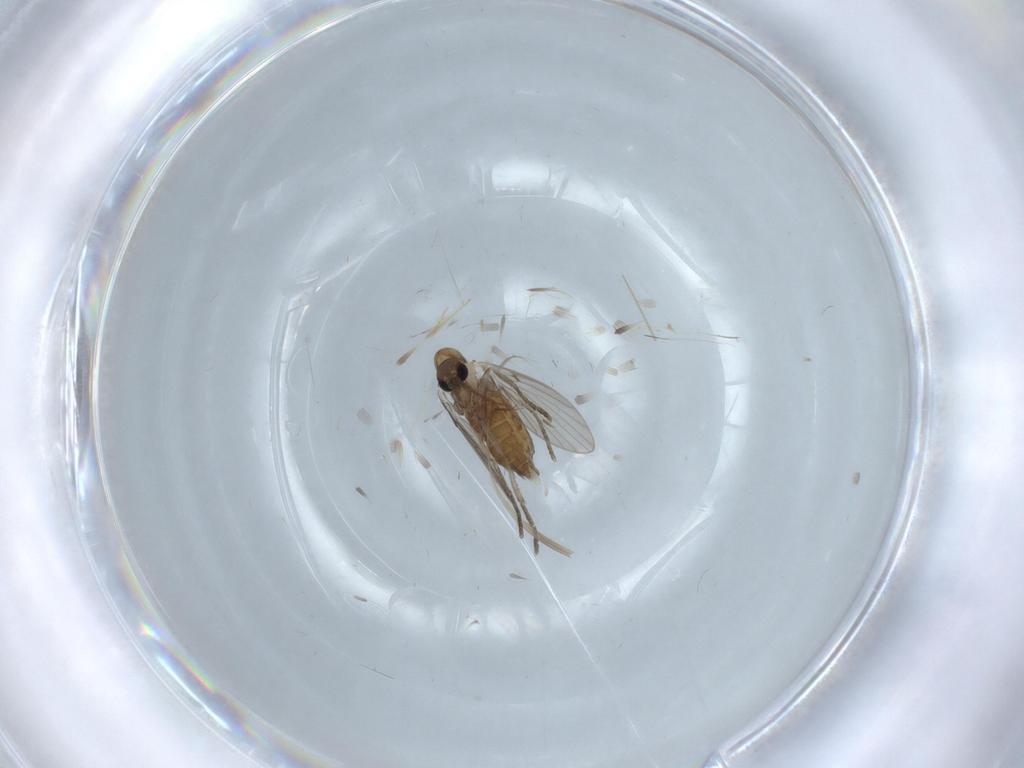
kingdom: Animalia
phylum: Arthropoda
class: Insecta
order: Diptera
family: Psychodidae
